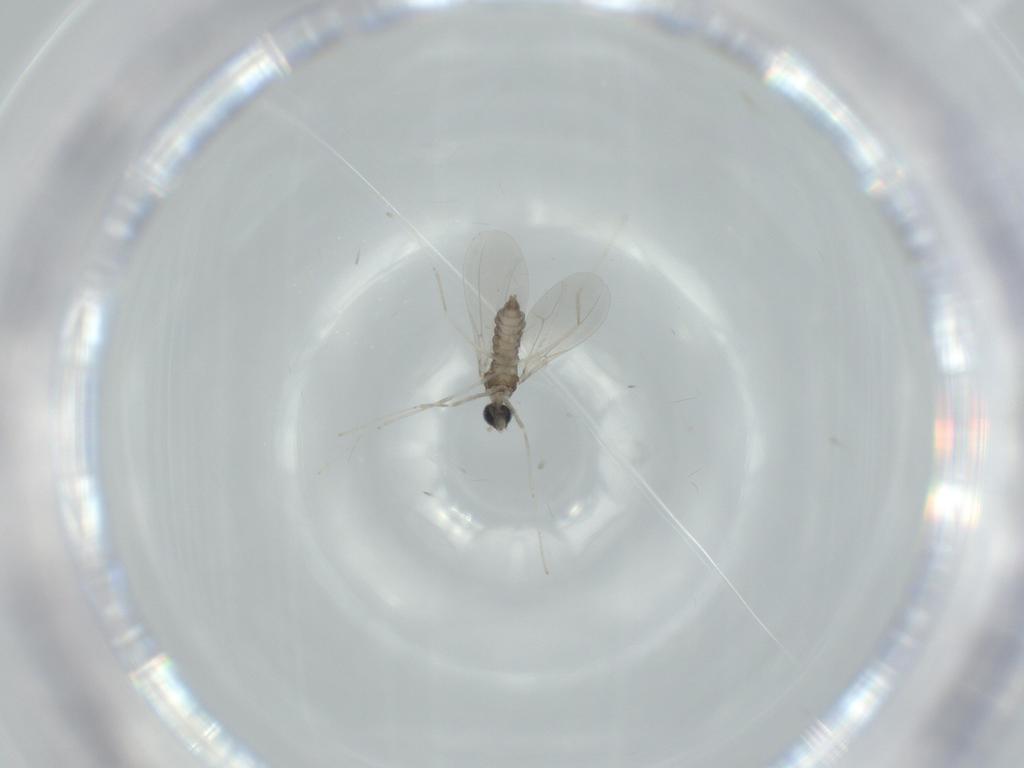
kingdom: Animalia
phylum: Arthropoda
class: Insecta
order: Diptera
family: Cecidomyiidae
